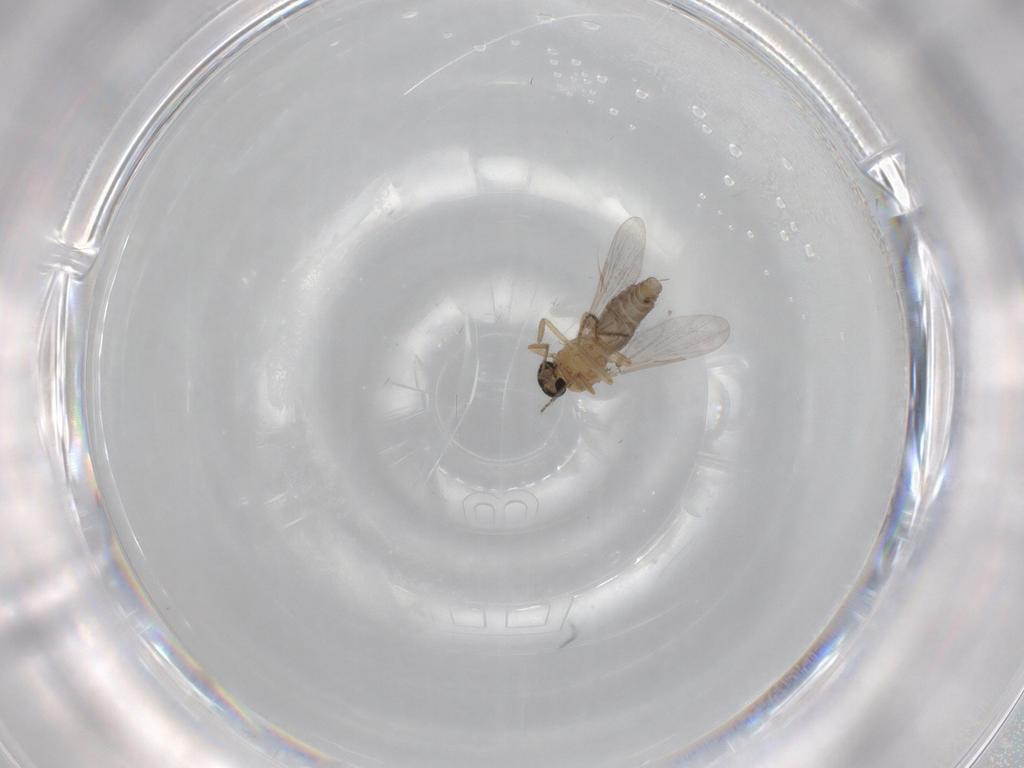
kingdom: Animalia
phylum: Arthropoda
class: Insecta
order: Diptera
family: Ceratopogonidae
